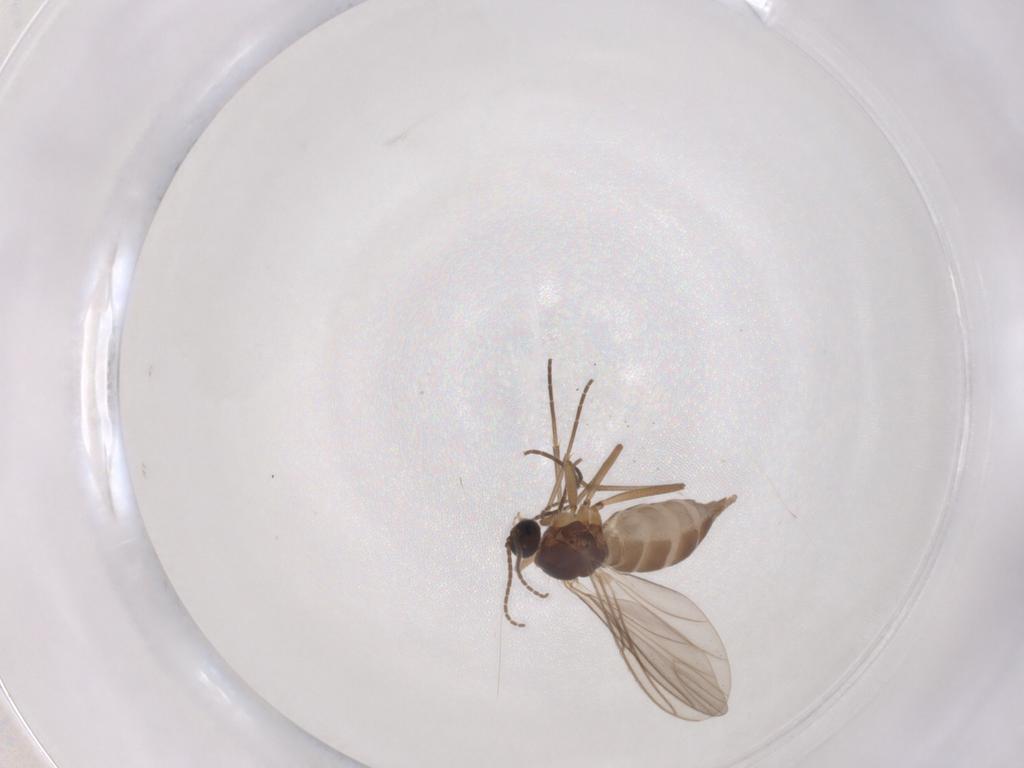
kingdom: Animalia
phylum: Arthropoda
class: Insecta
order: Diptera
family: Sciaridae
